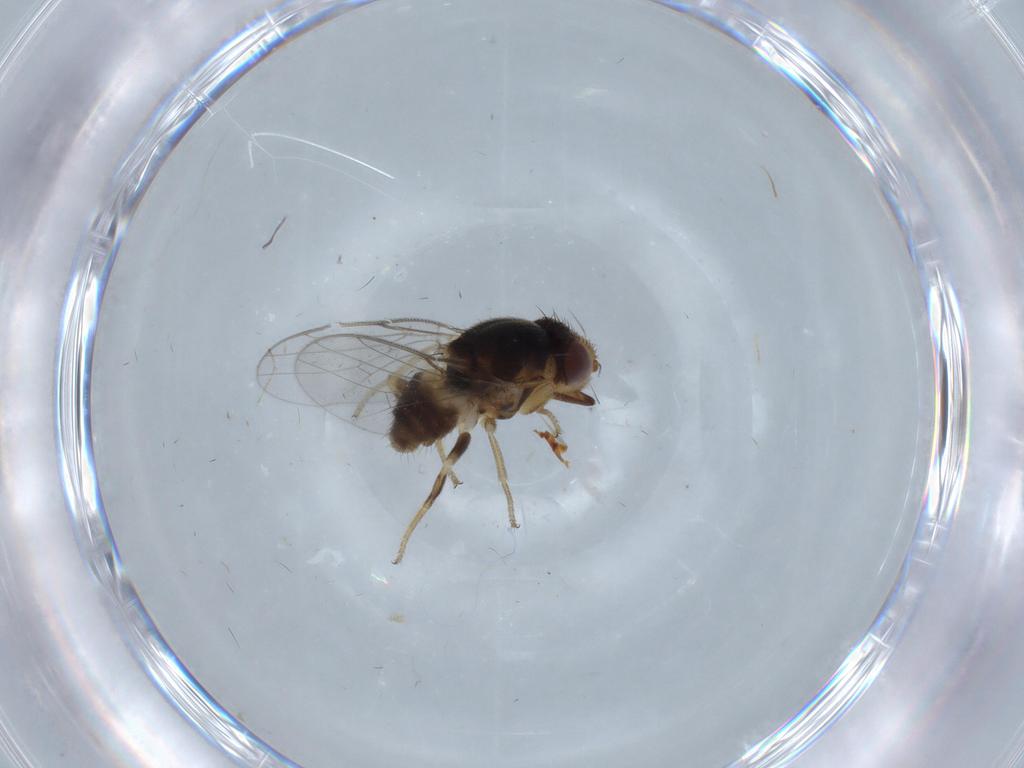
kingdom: Animalia
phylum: Arthropoda
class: Insecta
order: Diptera
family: Chloropidae
